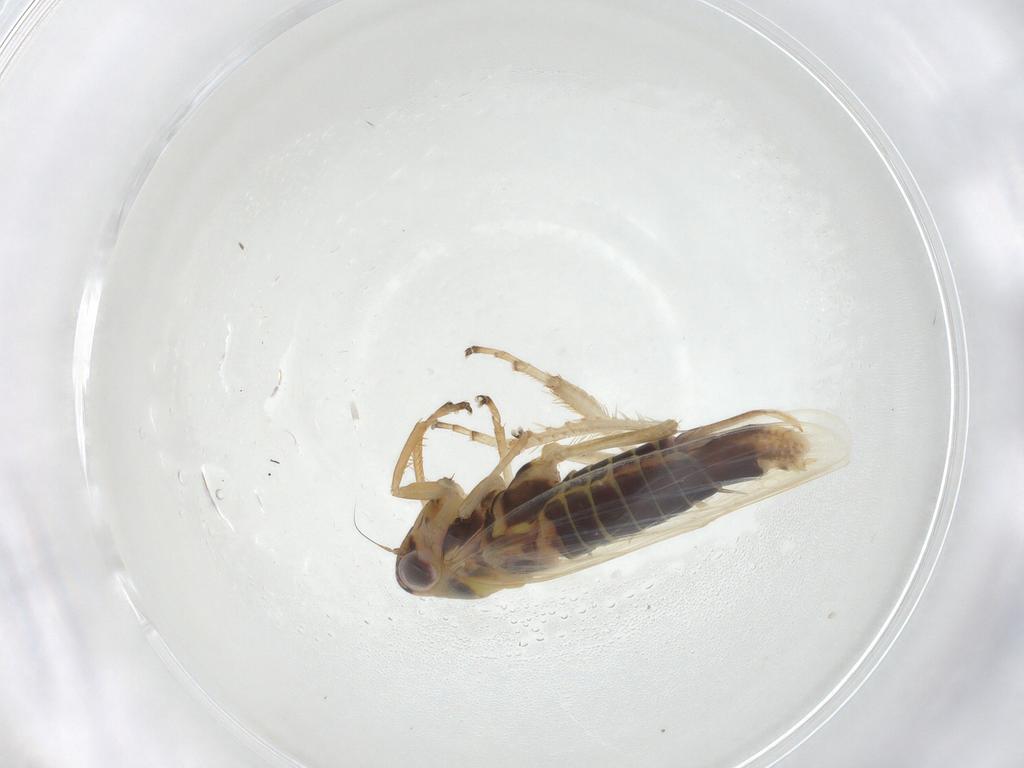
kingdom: Animalia
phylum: Arthropoda
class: Insecta
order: Hemiptera
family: Cicadellidae
